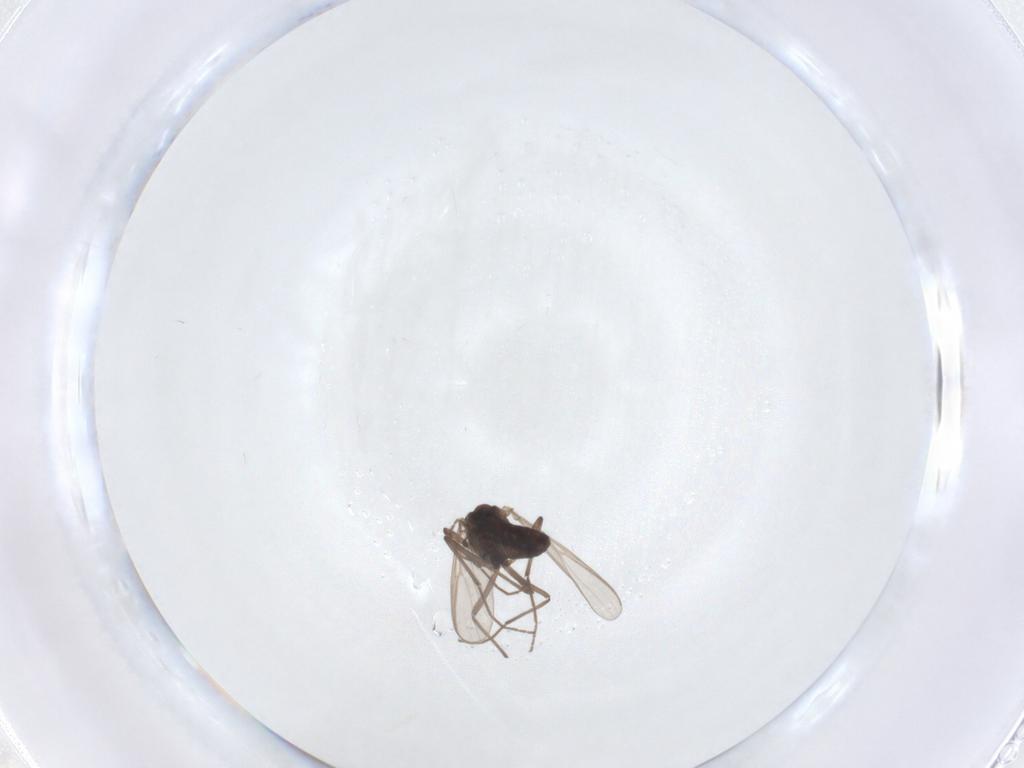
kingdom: Animalia
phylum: Arthropoda
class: Insecta
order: Diptera
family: Chironomidae
